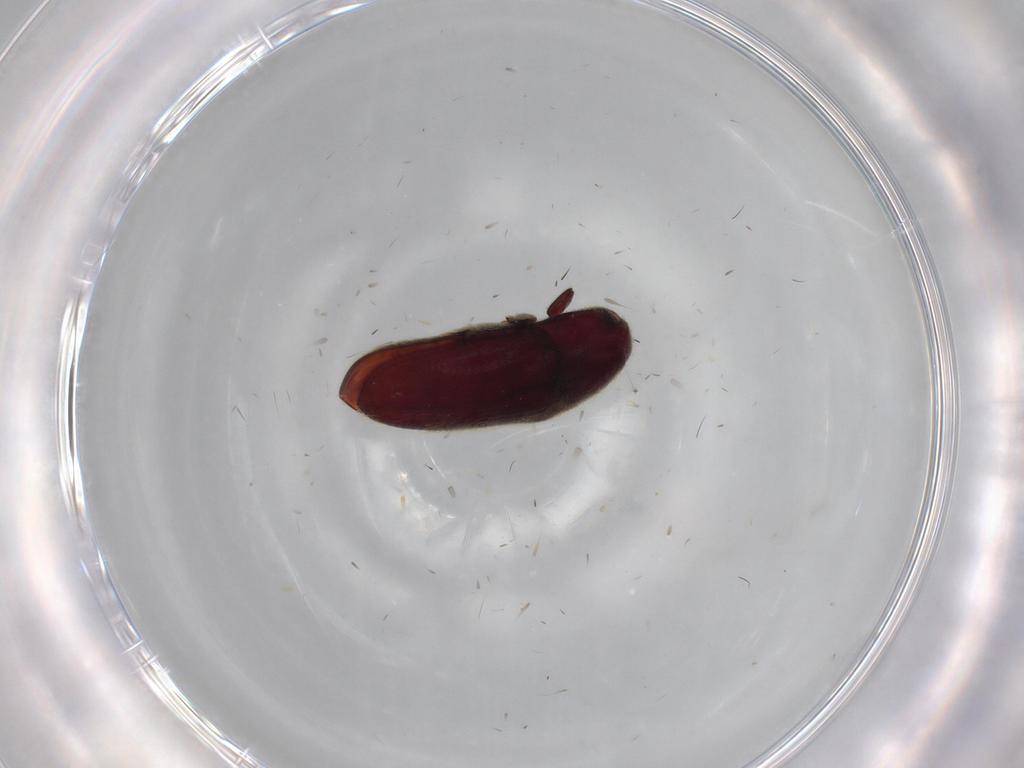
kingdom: Animalia
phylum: Arthropoda
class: Insecta
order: Coleoptera
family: Throscidae
